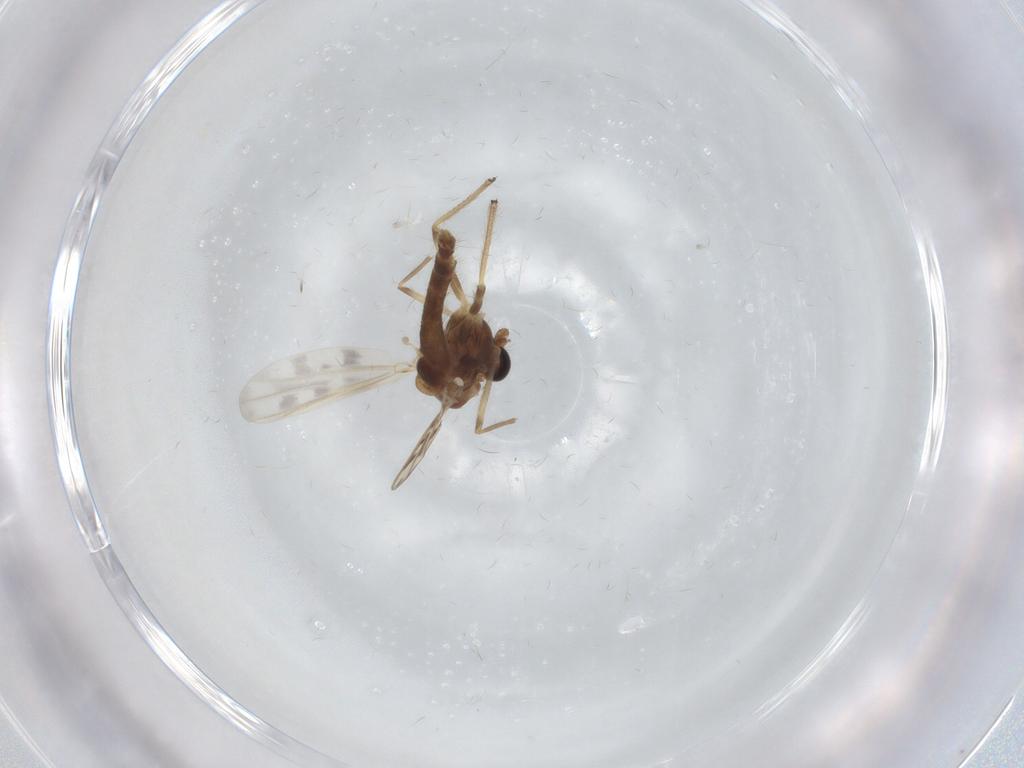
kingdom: Animalia
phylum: Arthropoda
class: Insecta
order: Diptera
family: Chironomidae
